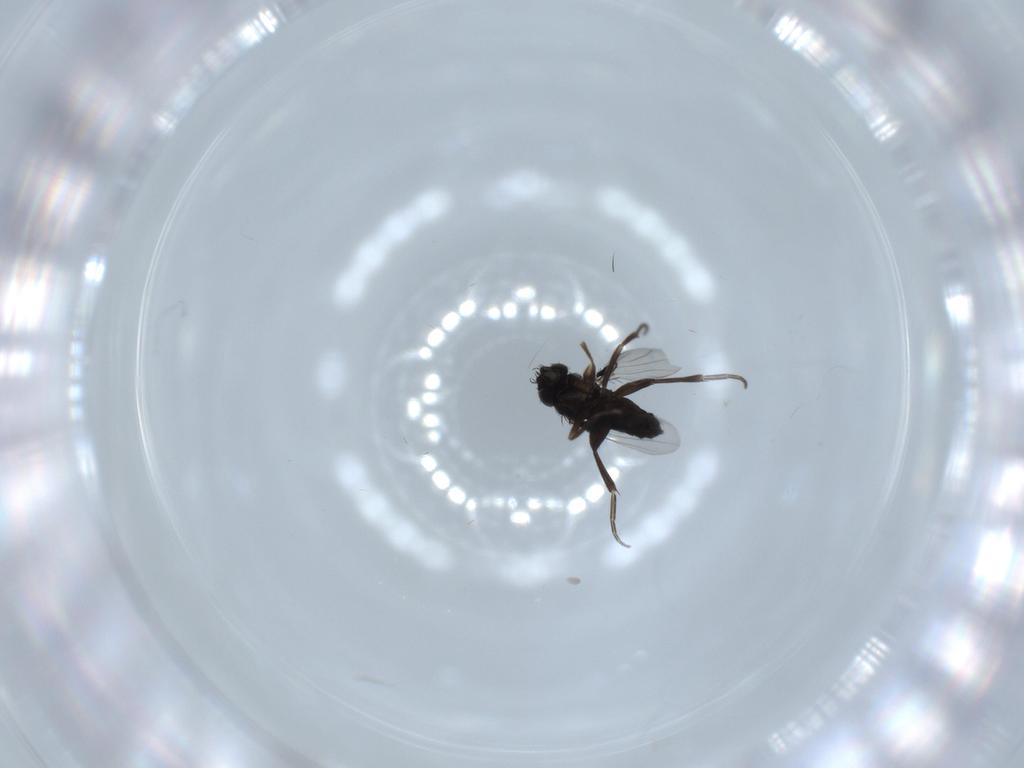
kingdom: Animalia
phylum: Arthropoda
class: Insecta
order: Diptera
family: Phoridae
